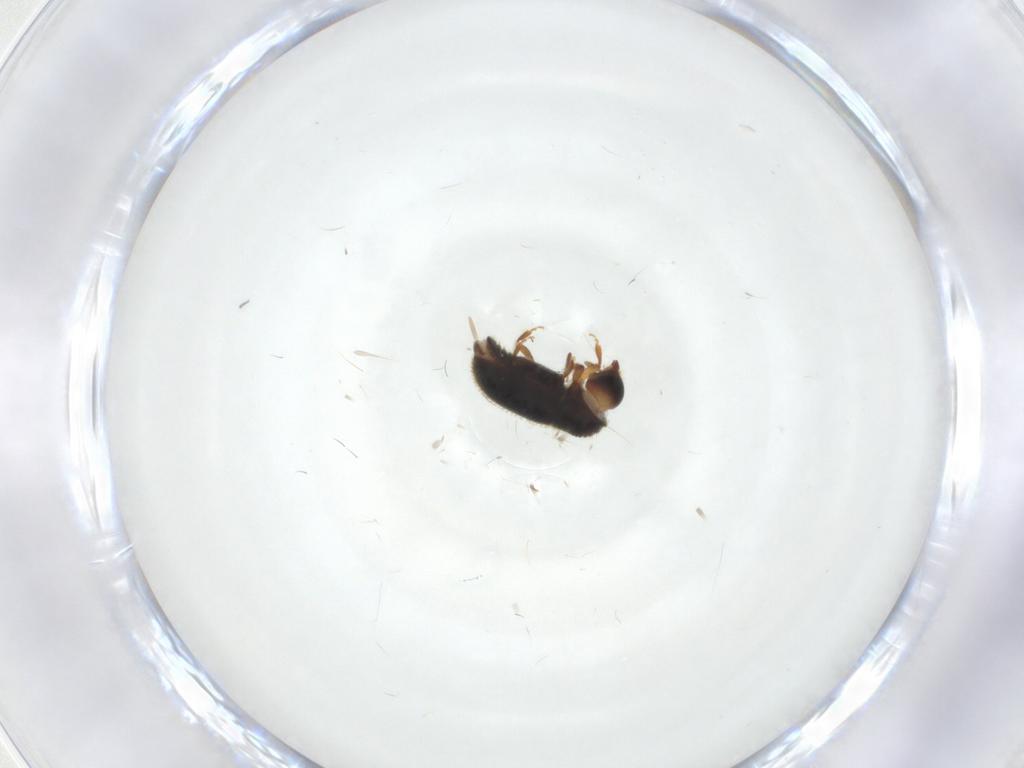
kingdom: Animalia
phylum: Arthropoda
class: Insecta
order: Coleoptera
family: Curculionidae
